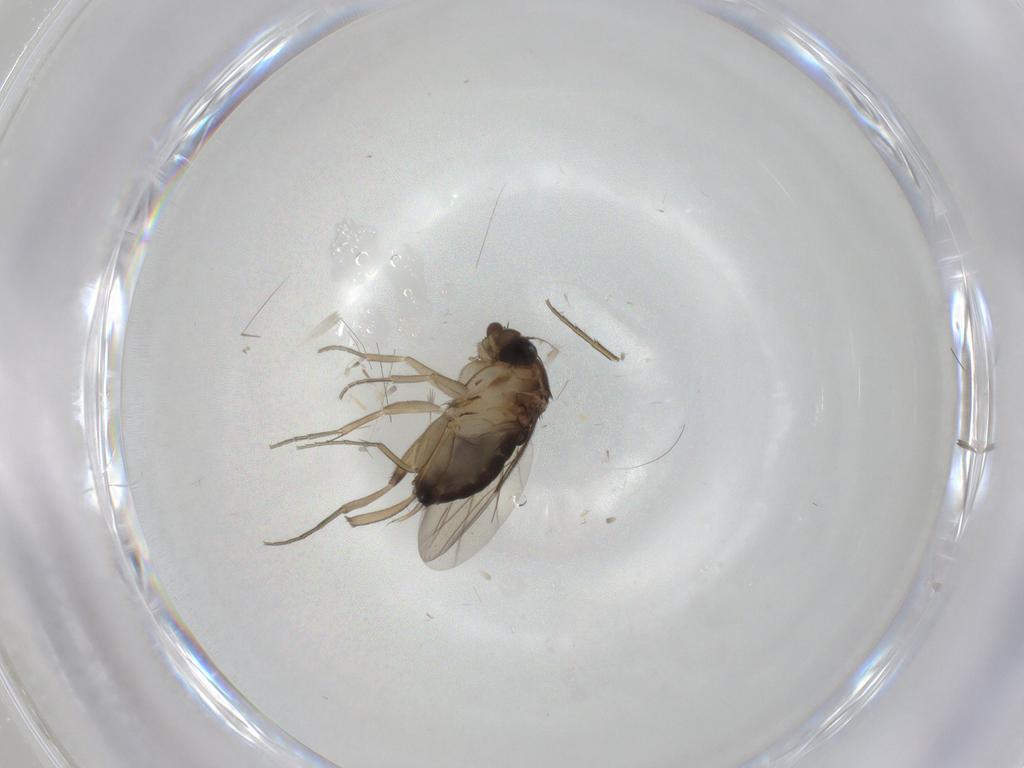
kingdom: Animalia
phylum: Arthropoda
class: Insecta
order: Diptera
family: Phoridae
